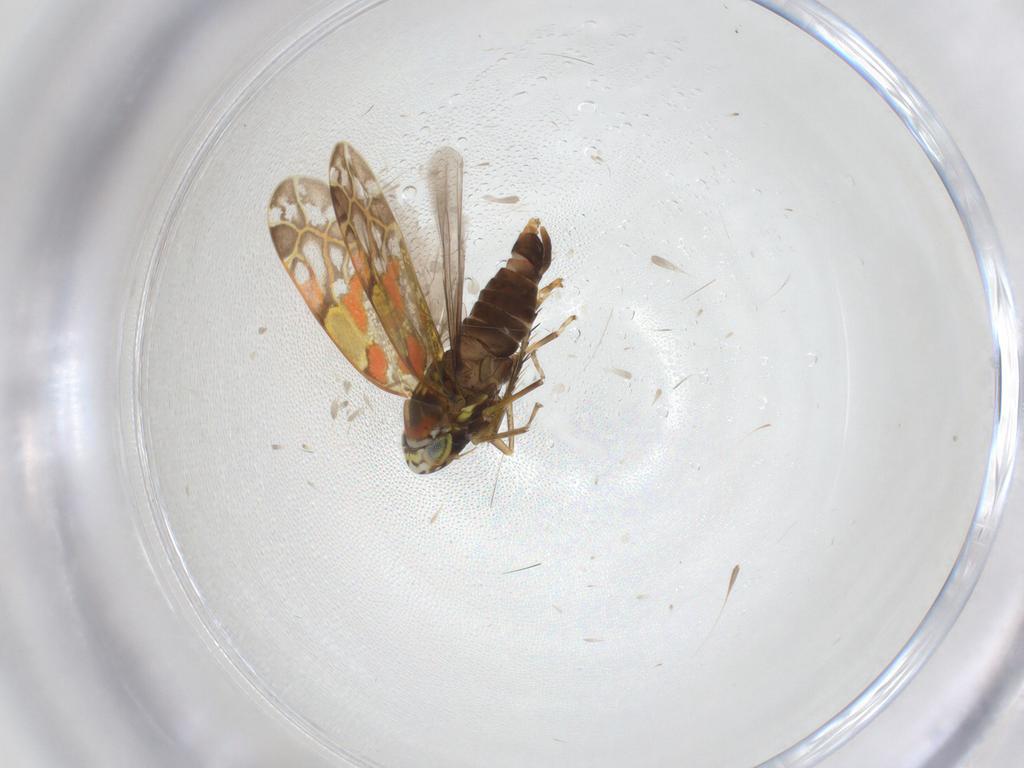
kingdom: Animalia
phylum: Arthropoda
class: Insecta
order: Hemiptera
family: Cicadellidae
